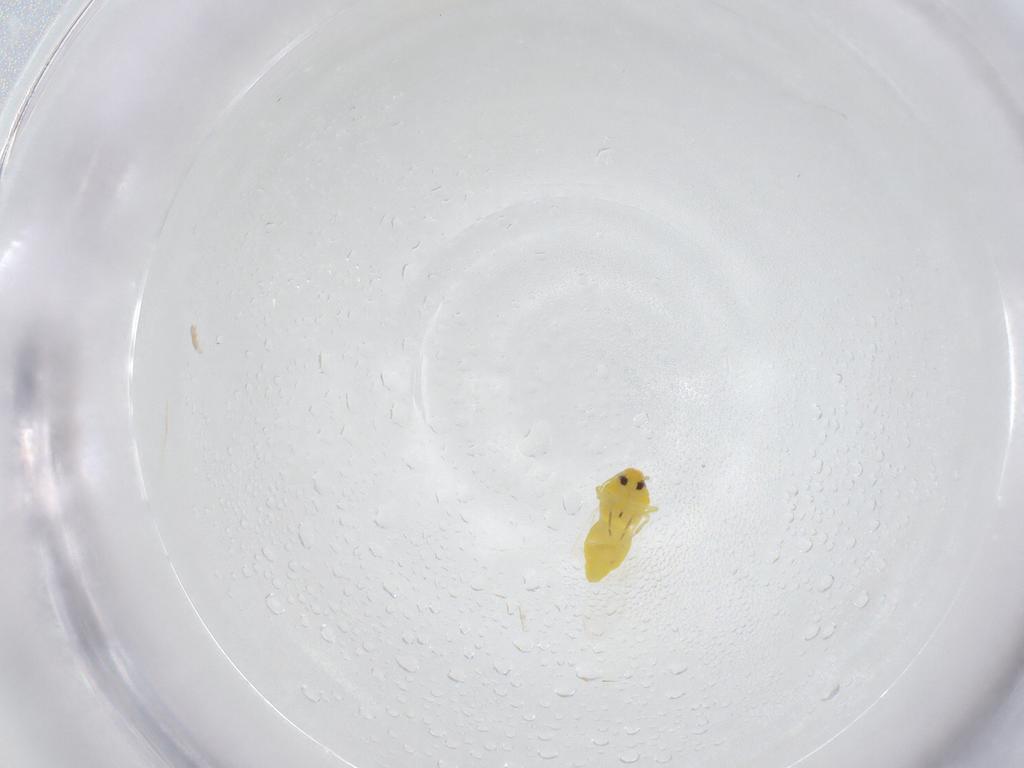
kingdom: Animalia
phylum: Arthropoda
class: Insecta
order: Hemiptera
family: Aleyrodidae
